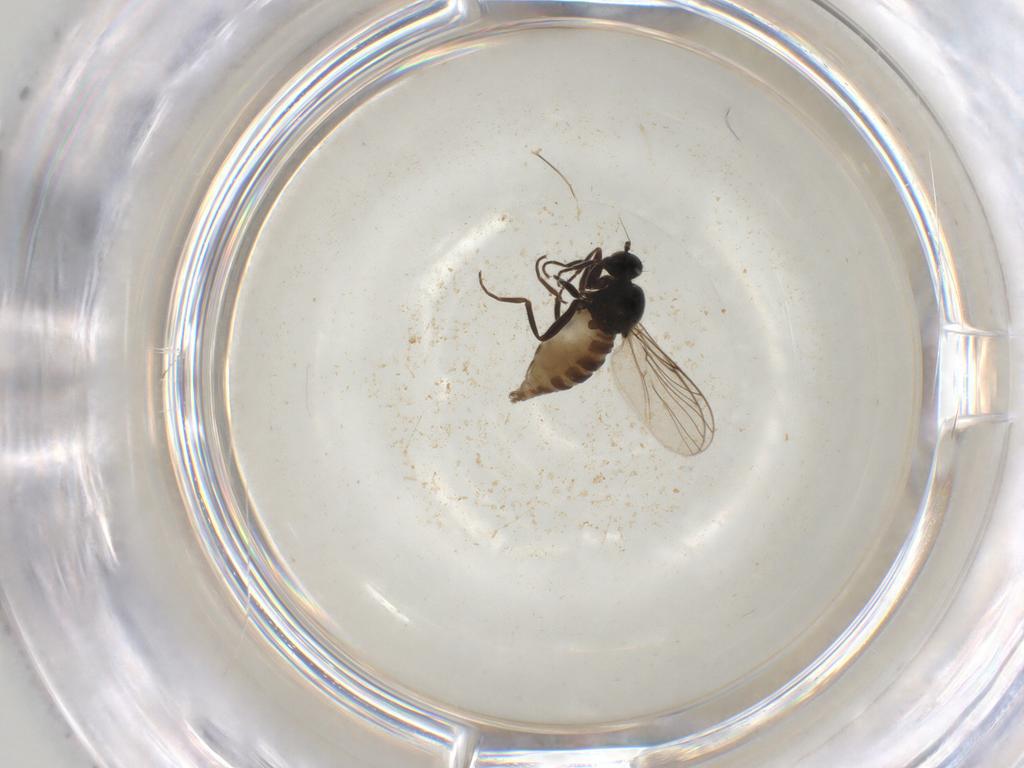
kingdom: Animalia
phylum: Arthropoda
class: Insecta
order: Diptera
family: Hybotidae
